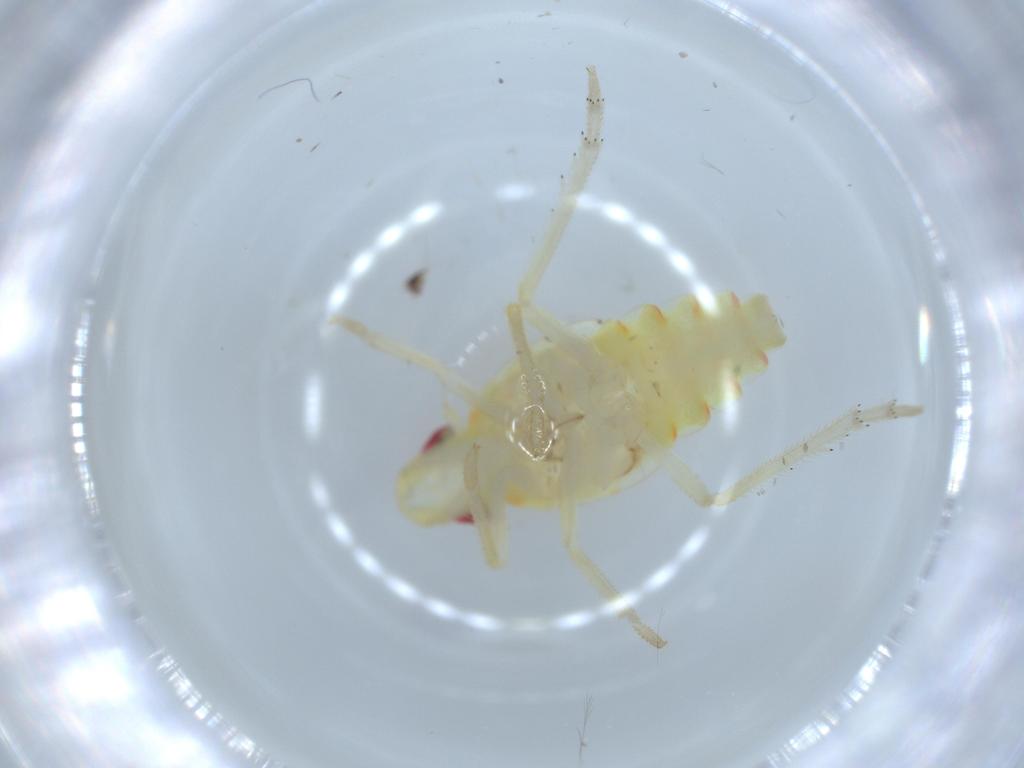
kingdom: Animalia
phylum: Arthropoda
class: Insecta
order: Hemiptera
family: Tropiduchidae
